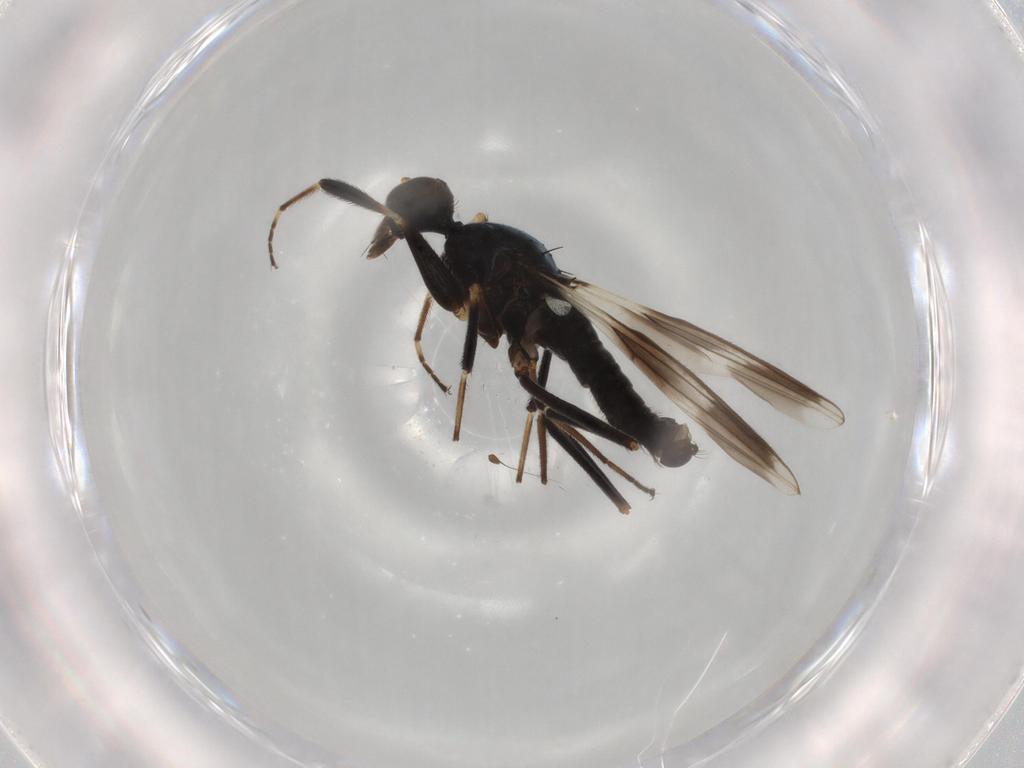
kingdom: Animalia
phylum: Arthropoda
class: Insecta
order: Diptera
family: Hybotidae
